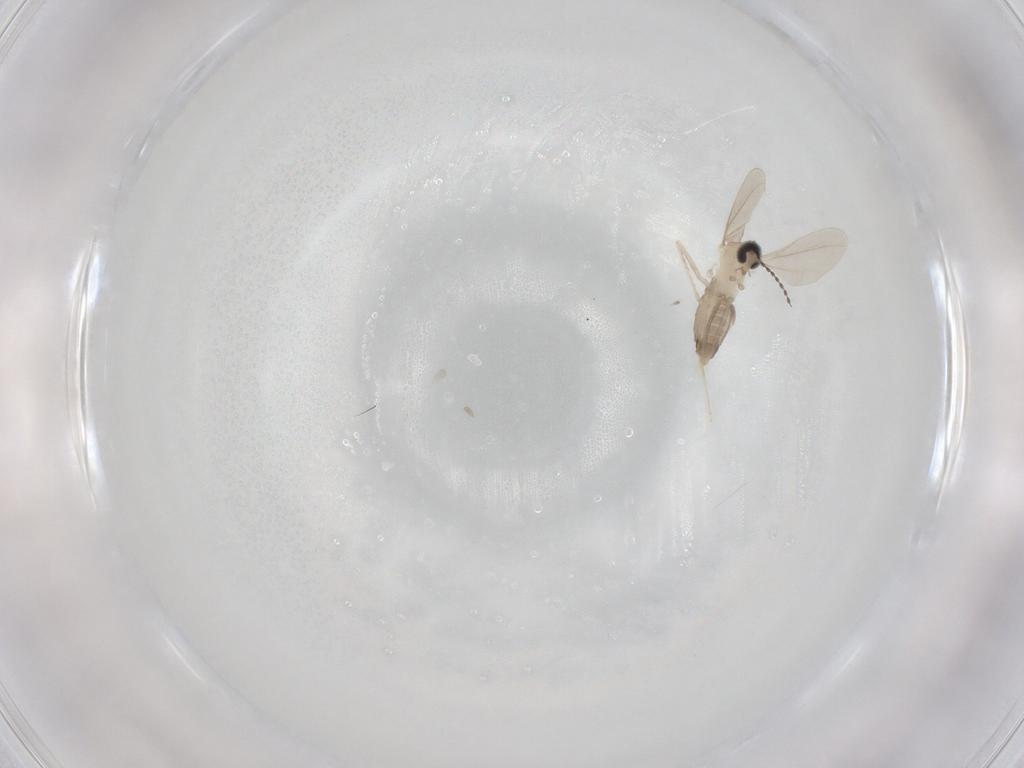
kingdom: Animalia
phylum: Arthropoda
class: Insecta
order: Diptera
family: Cecidomyiidae
